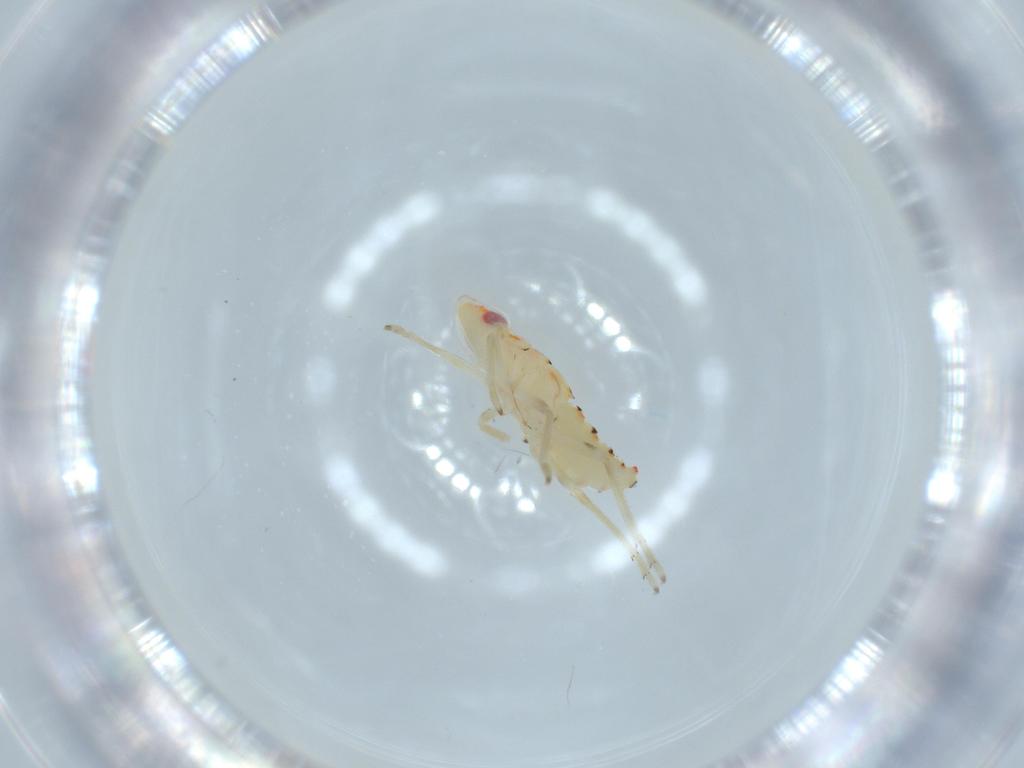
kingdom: Animalia
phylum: Arthropoda
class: Insecta
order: Hemiptera
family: Tropiduchidae
